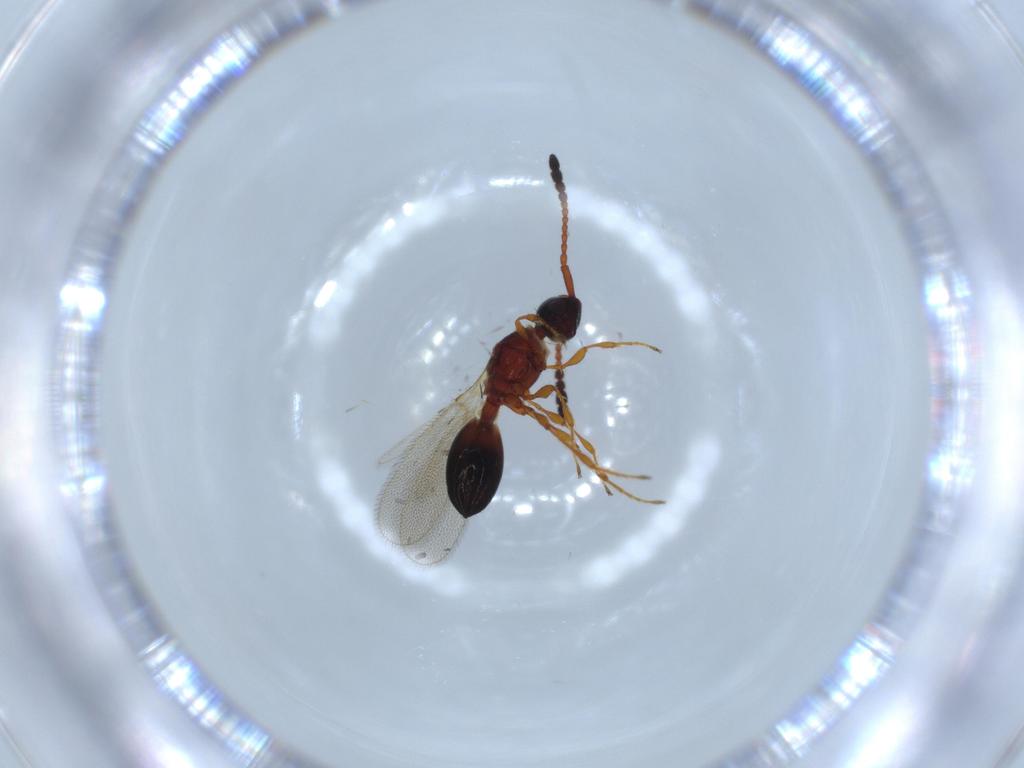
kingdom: Animalia
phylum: Arthropoda
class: Insecta
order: Hymenoptera
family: Diapriidae
